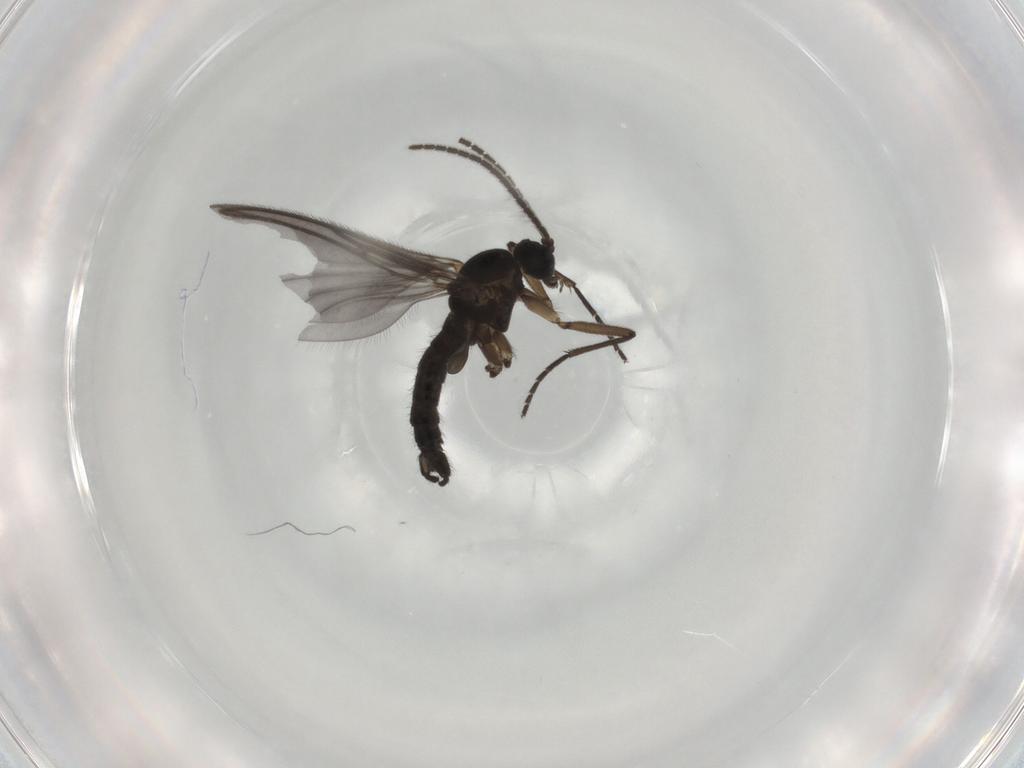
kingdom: Animalia
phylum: Arthropoda
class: Insecta
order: Diptera
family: Sciaridae
